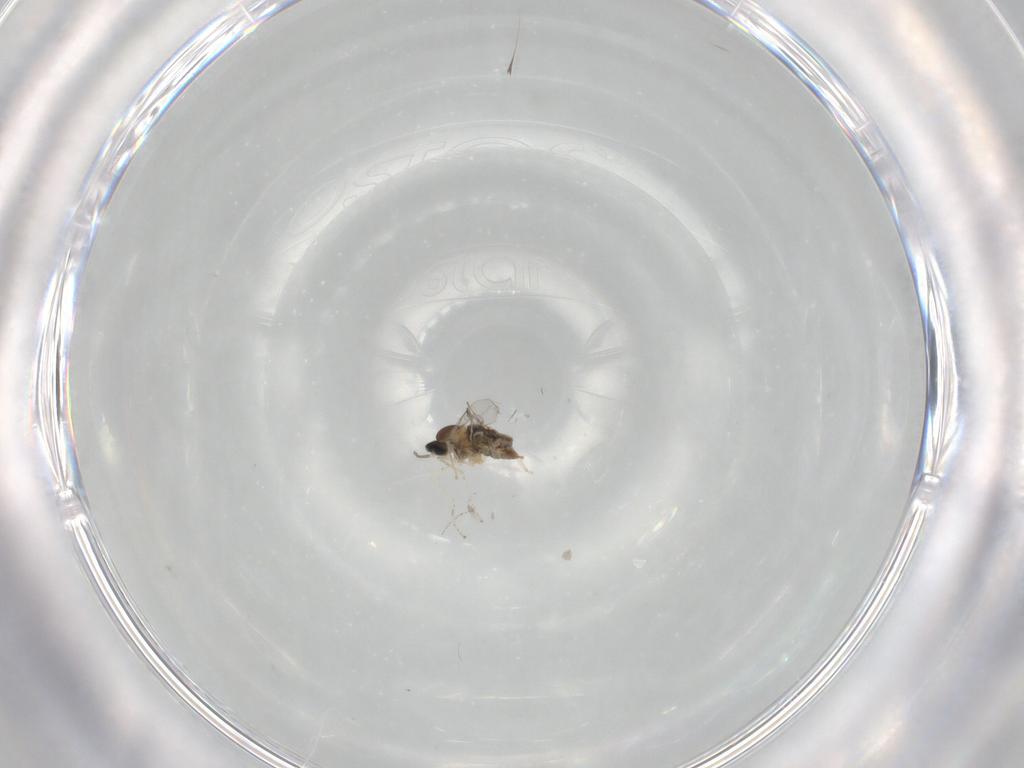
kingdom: Animalia
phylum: Arthropoda
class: Insecta
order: Diptera
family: Cecidomyiidae
